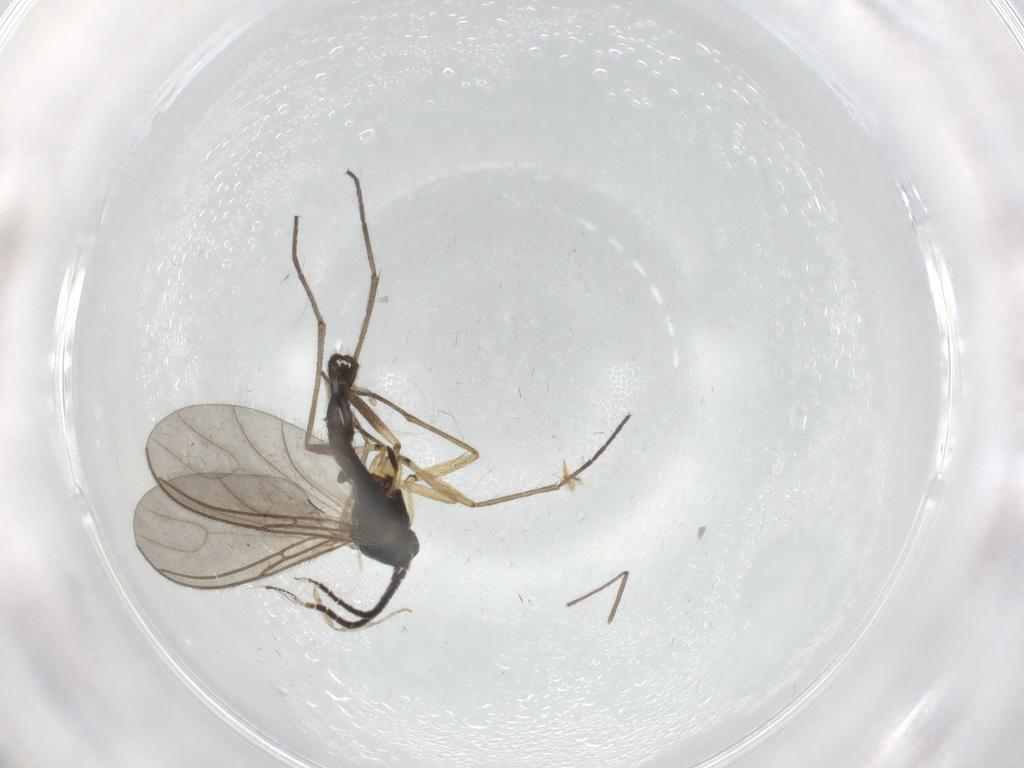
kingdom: Animalia
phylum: Arthropoda
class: Insecta
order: Diptera
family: Sciaridae
